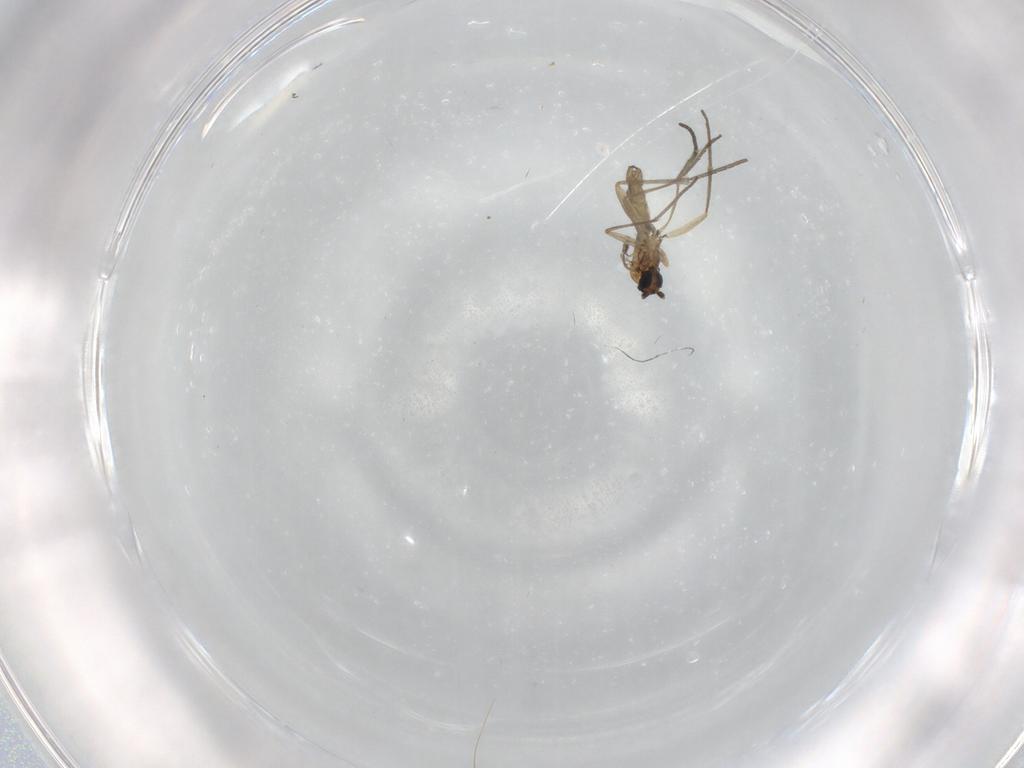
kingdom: Animalia
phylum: Arthropoda
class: Insecta
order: Diptera
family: Sciaridae
